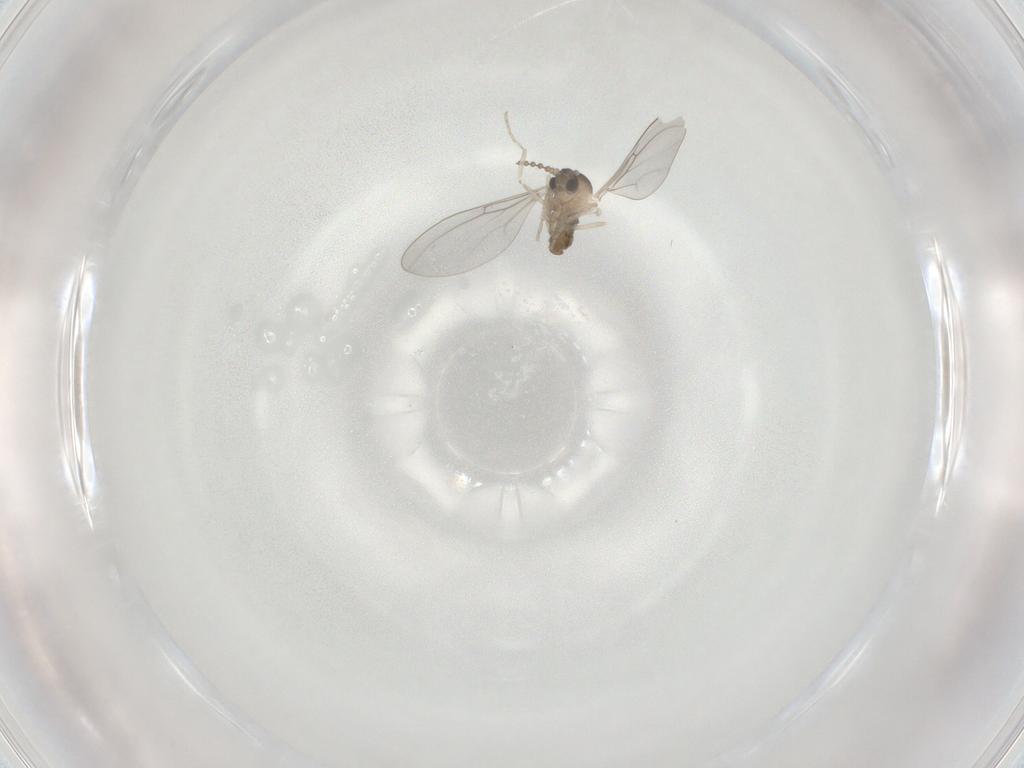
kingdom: Animalia
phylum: Arthropoda
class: Insecta
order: Diptera
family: Cecidomyiidae
